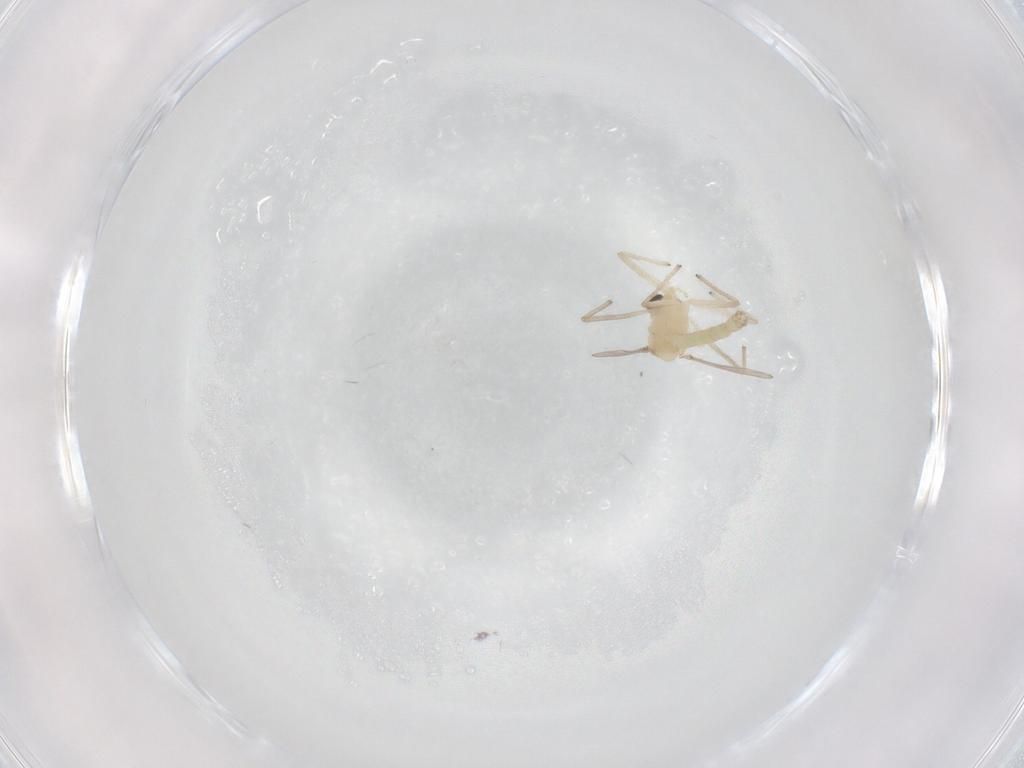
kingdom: Animalia
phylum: Arthropoda
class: Insecta
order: Diptera
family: Chironomidae
